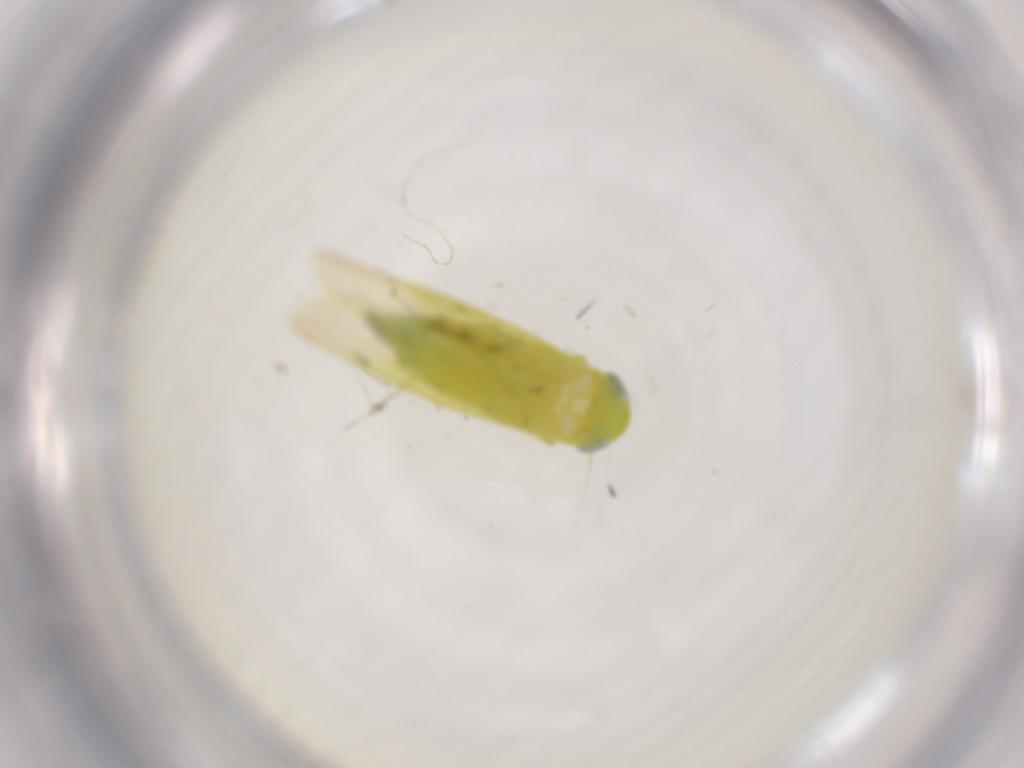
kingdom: Animalia
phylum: Arthropoda
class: Insecta
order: Hemiptera
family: Cicadellidae
